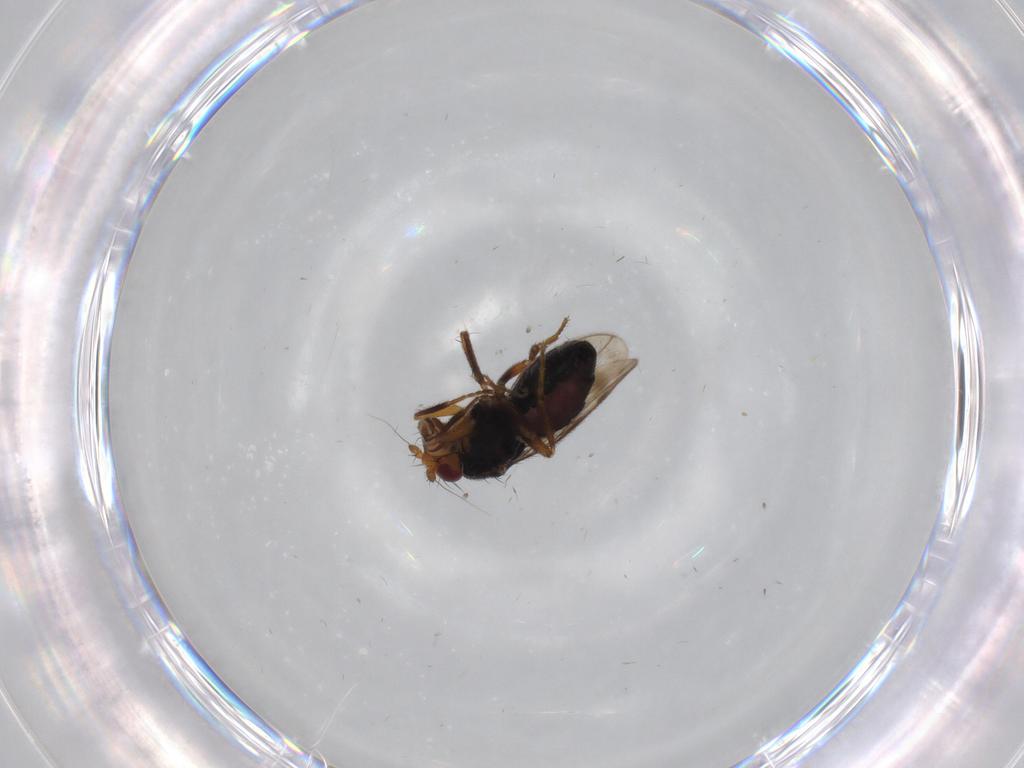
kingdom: Animalia
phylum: Arthropoda
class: Insecta
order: Diptera
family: Sphaeroceridae
